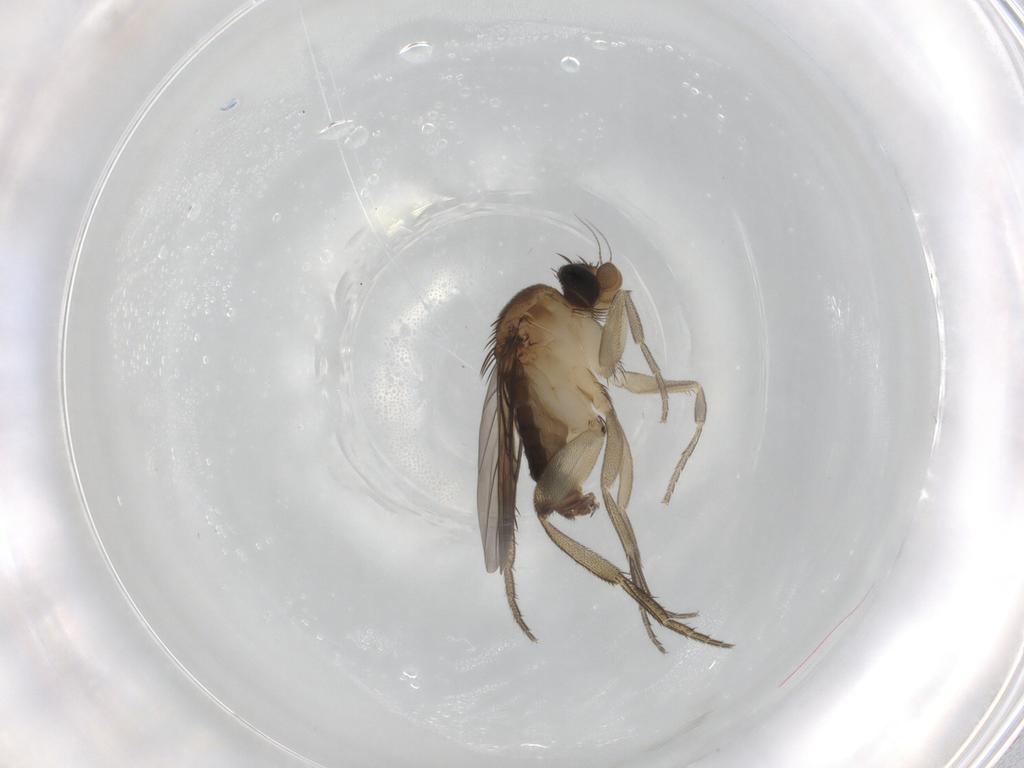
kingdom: Animalia
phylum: Arthropoda
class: Insecta
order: Diptera
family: Phoridae
